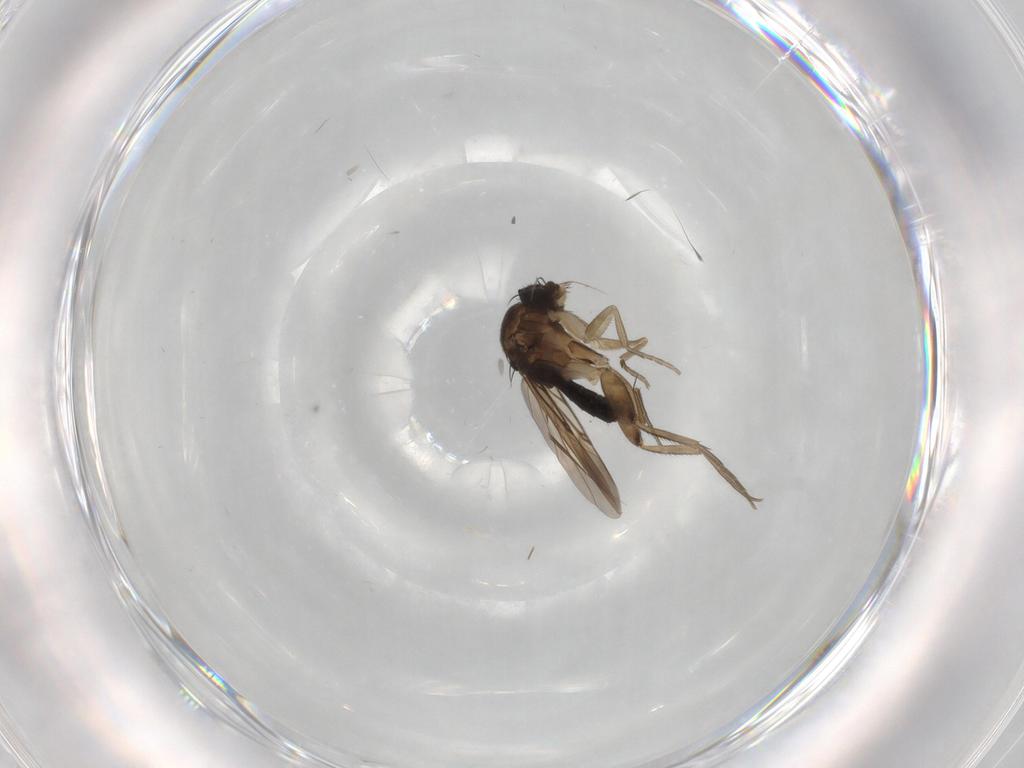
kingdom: Animalia
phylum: Arthropoda
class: Insecta
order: Diptera
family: Phoridae
